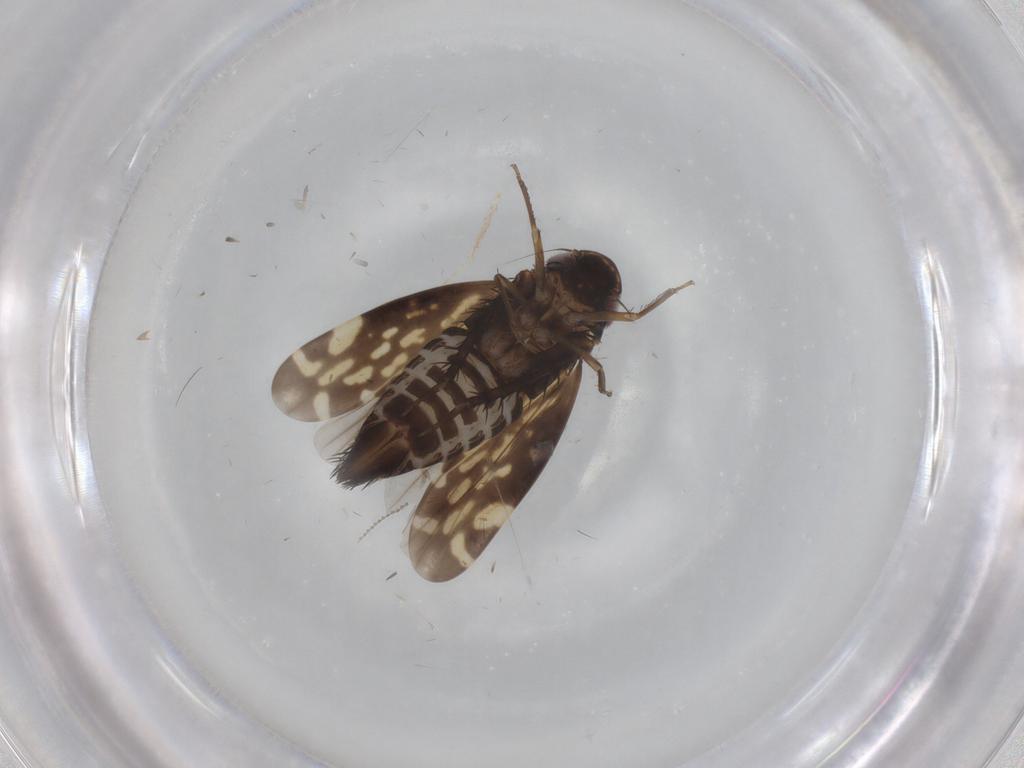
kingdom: Animalia
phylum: Arthropoda
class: Insecta
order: Hemiptera
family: Cicadellidae
